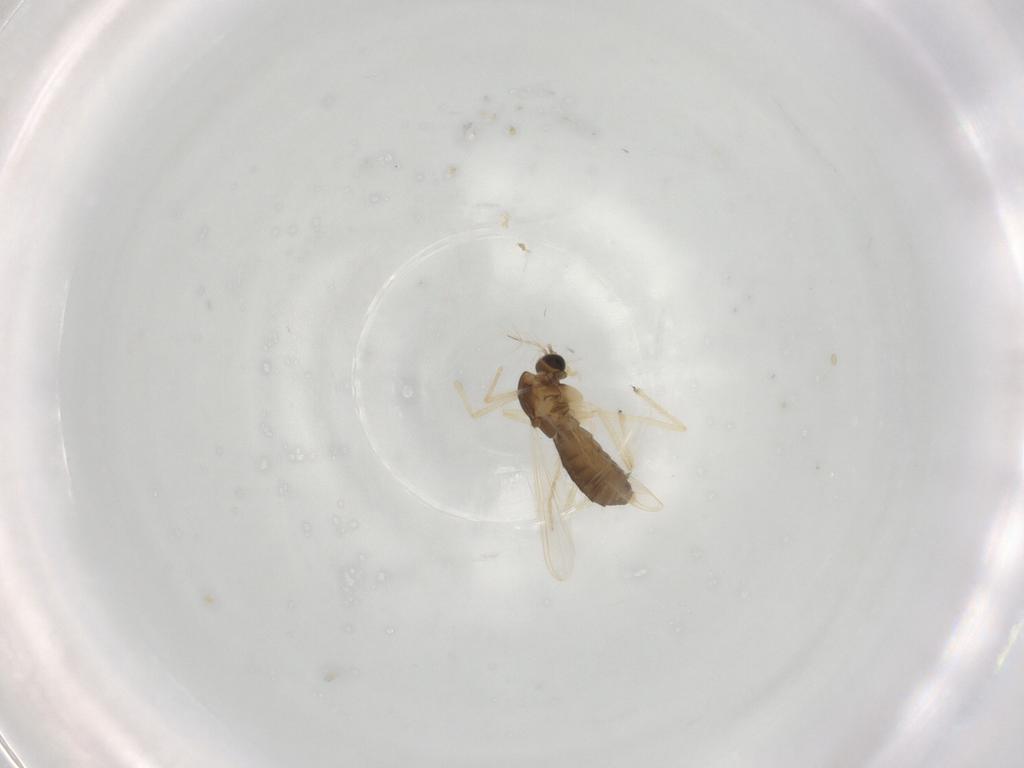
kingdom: Animalia
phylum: Arthropoda
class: Insecta
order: Diptera
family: Chironomidae
